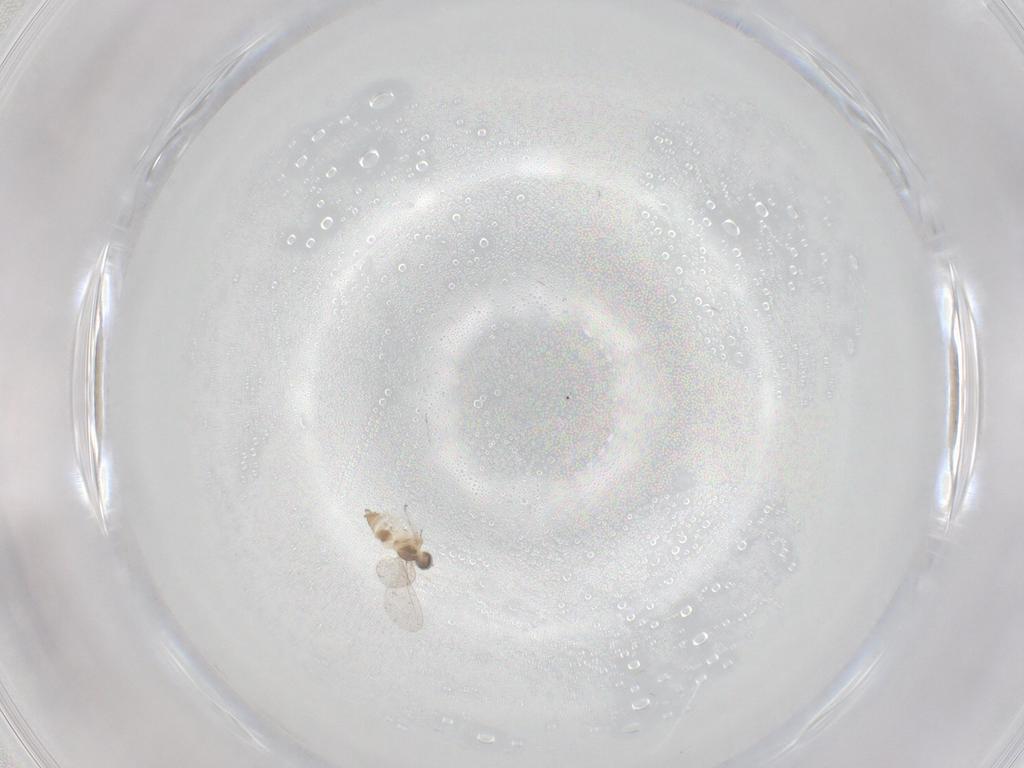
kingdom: Animalia
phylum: Arthropoda
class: Insecta
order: Diptera
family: Cecidomyiidae
